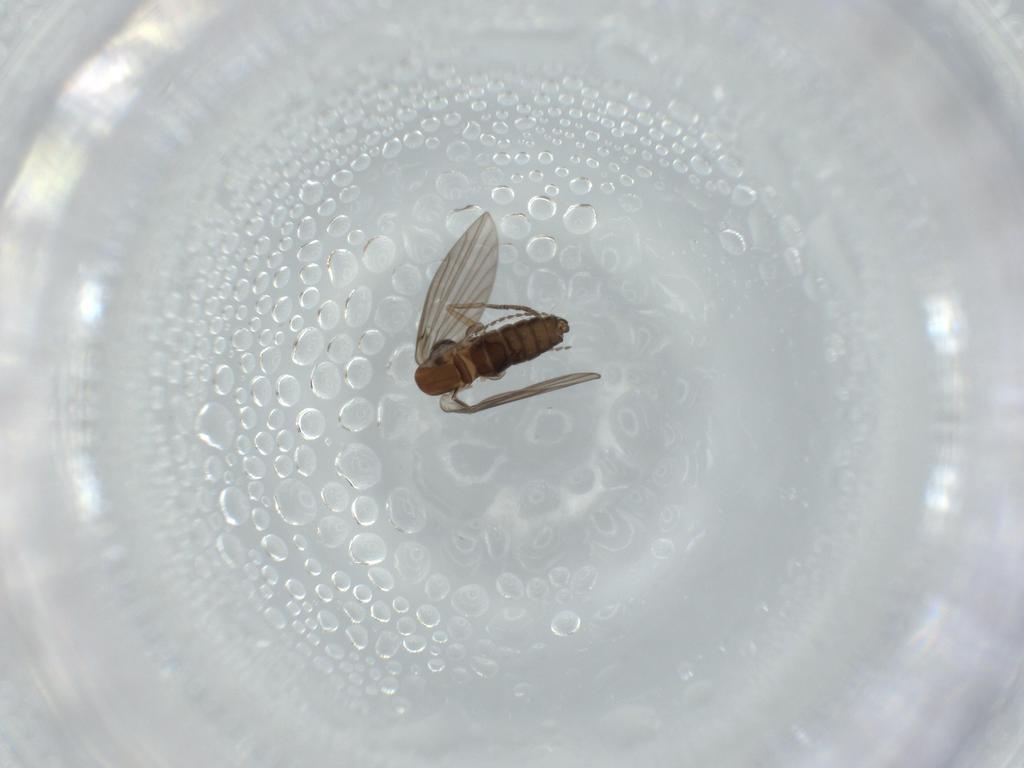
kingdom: Animalia
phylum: Arthropoda
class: Insecta
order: Diptera
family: Psychodidae
